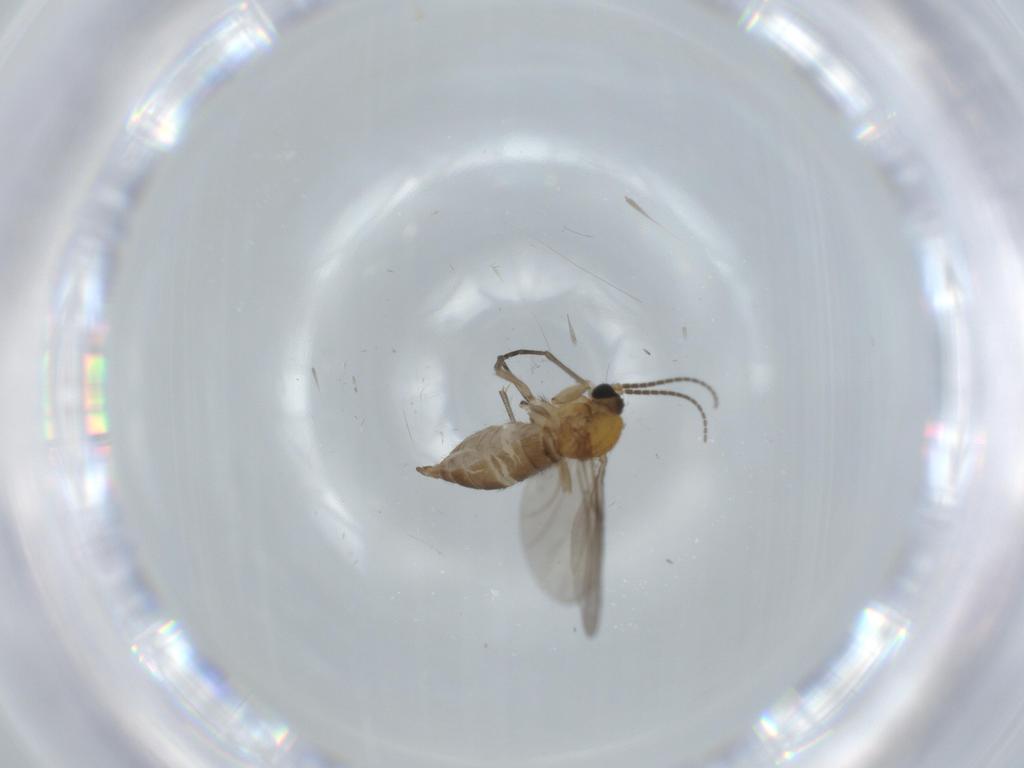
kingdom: Animalia
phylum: Arthropoda
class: Insecta
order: Diptera
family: Sciaridae
